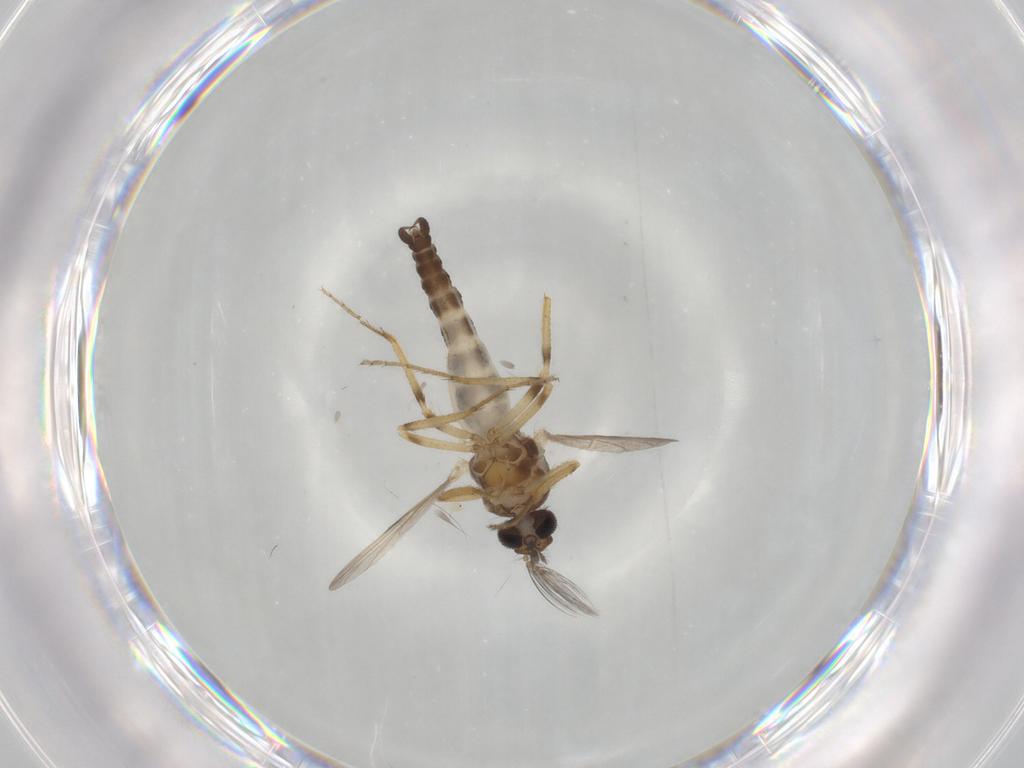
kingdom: Animalia
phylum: Arthropoda
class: Insecta
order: Diptera
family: Ceratopogonidae
